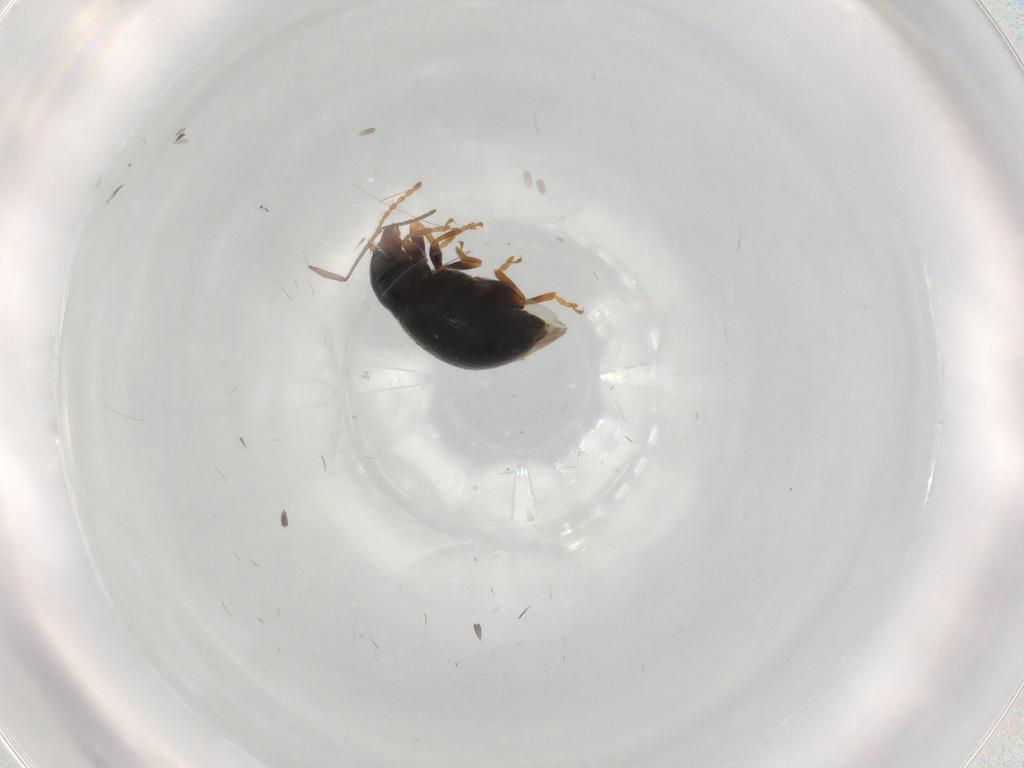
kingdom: Animalia
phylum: Arthropoda
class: Insecta
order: Coleoptera
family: Chrysomelidae
